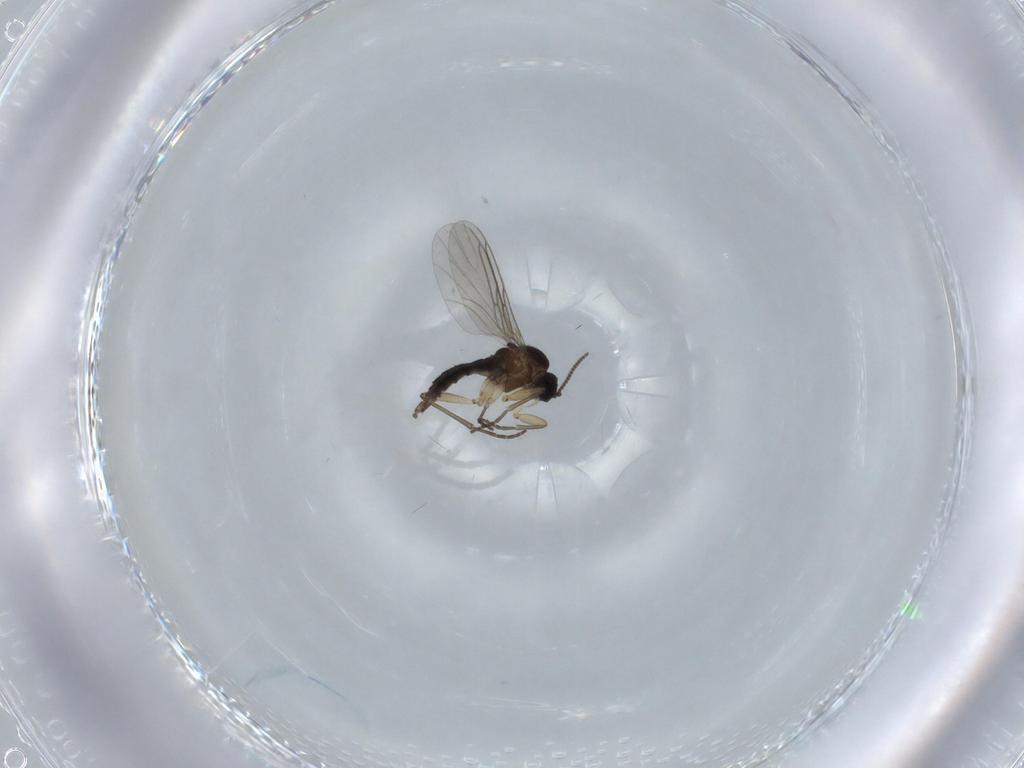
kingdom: Animalia
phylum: Arthropoda
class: Insecta
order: Diptera
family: Sciaridae
